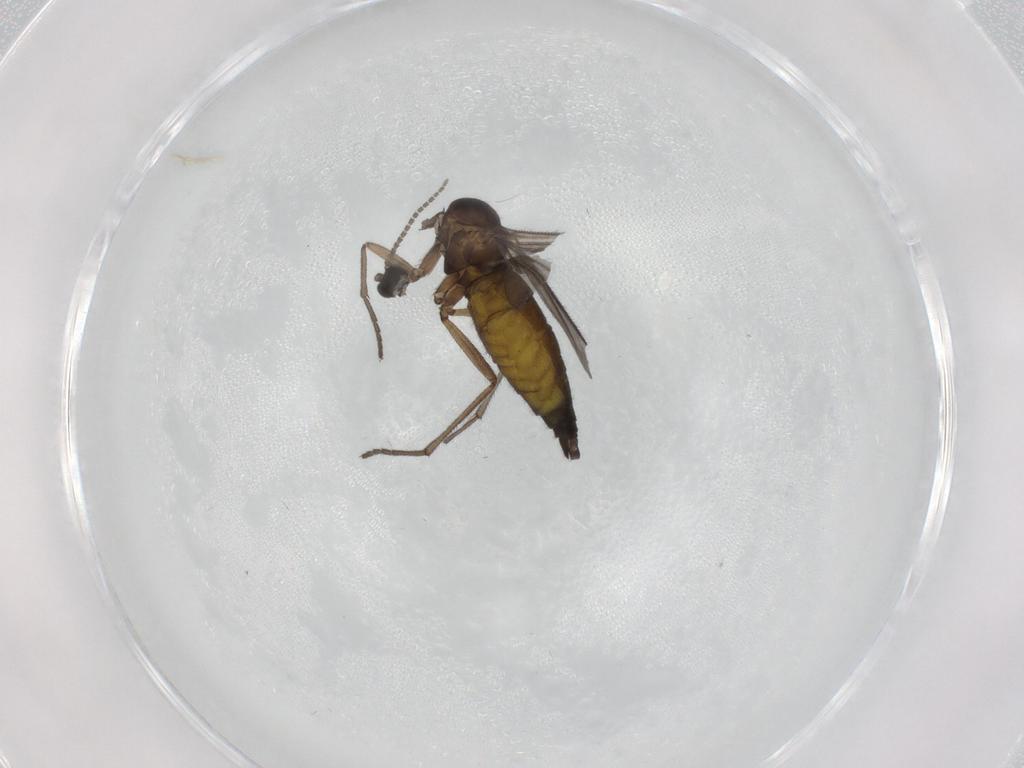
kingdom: Animalia
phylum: Arthropoda
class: Insecta
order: Diptera
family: Sciaridae
